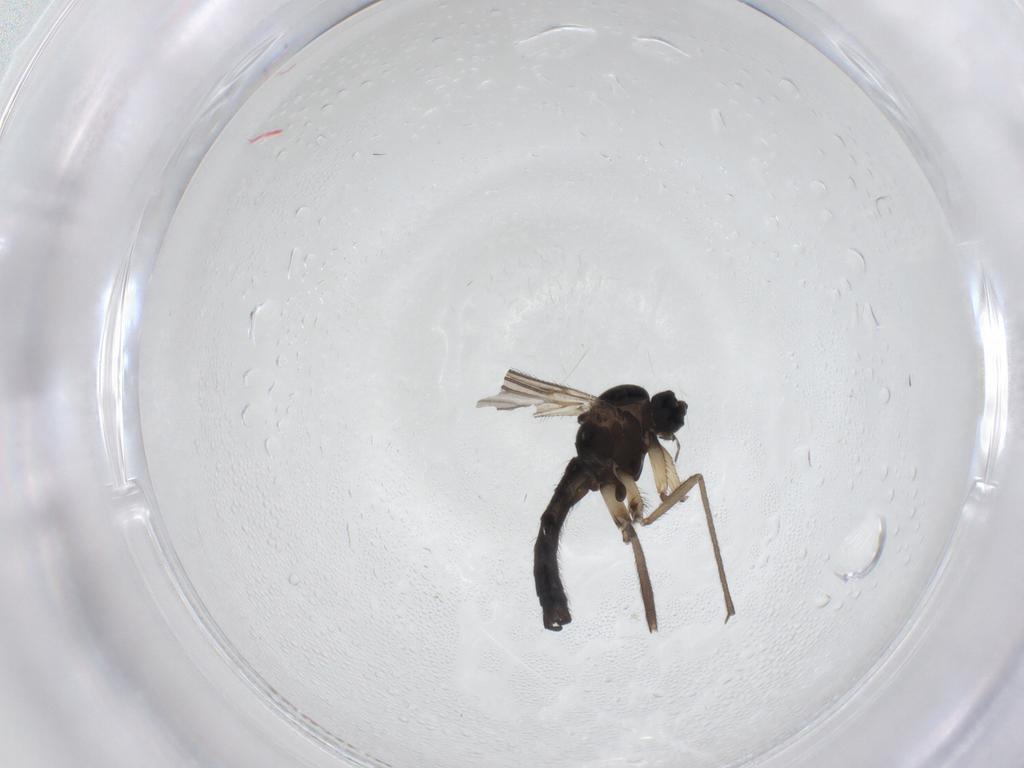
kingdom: Animalia
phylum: Arthropoda
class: Insecta
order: Diptera
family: Sciaridae
